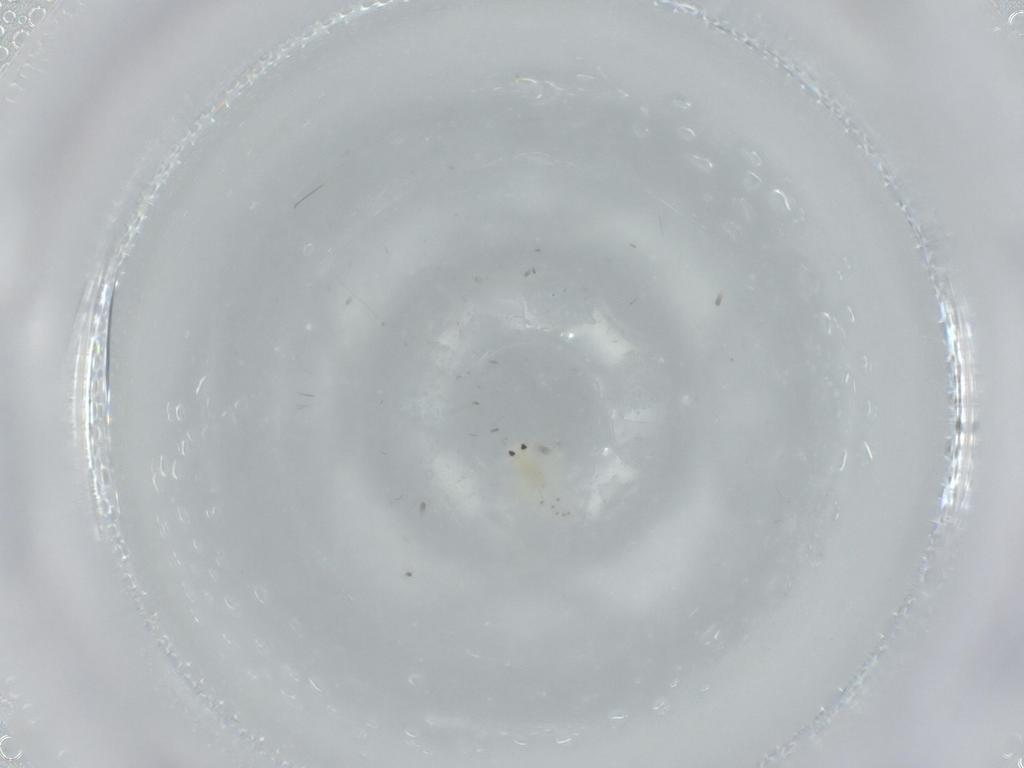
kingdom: Animalia
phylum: Arthropoda
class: Insecta
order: Hemiptera
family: Cicadellidae
